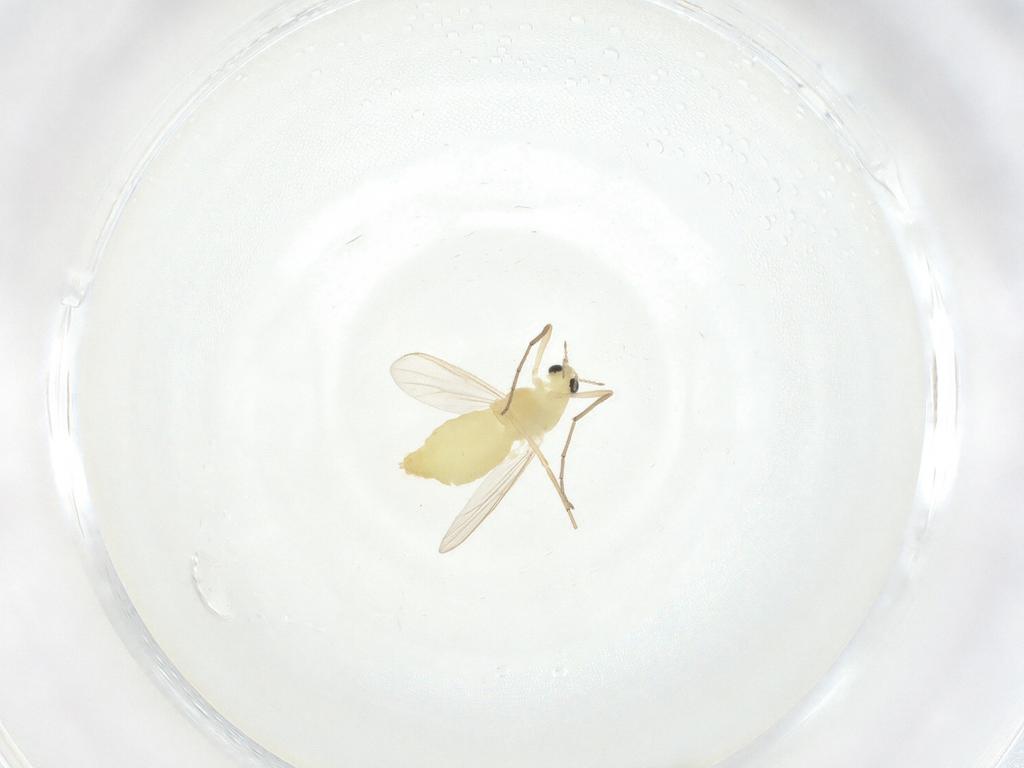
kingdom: Animalia
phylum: Arthropoda
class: Insecta
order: Diptera
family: Chironomidae
